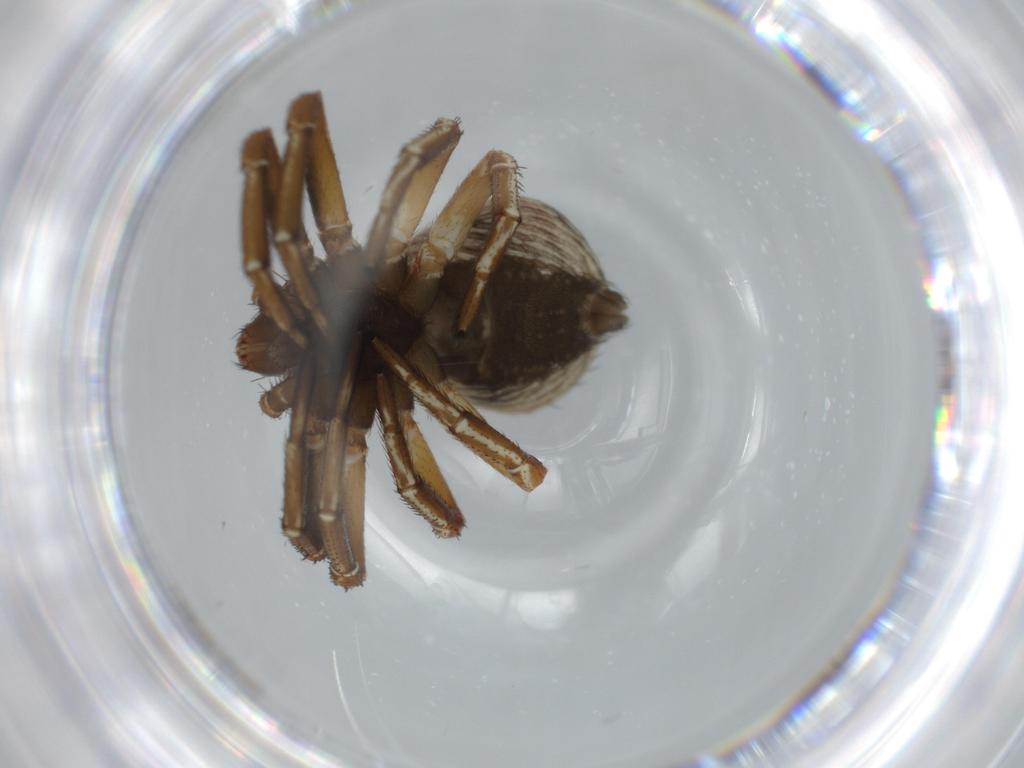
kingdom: Animalia
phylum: Arthropoda
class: Arachnida
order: Araneae
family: Thomisidae
